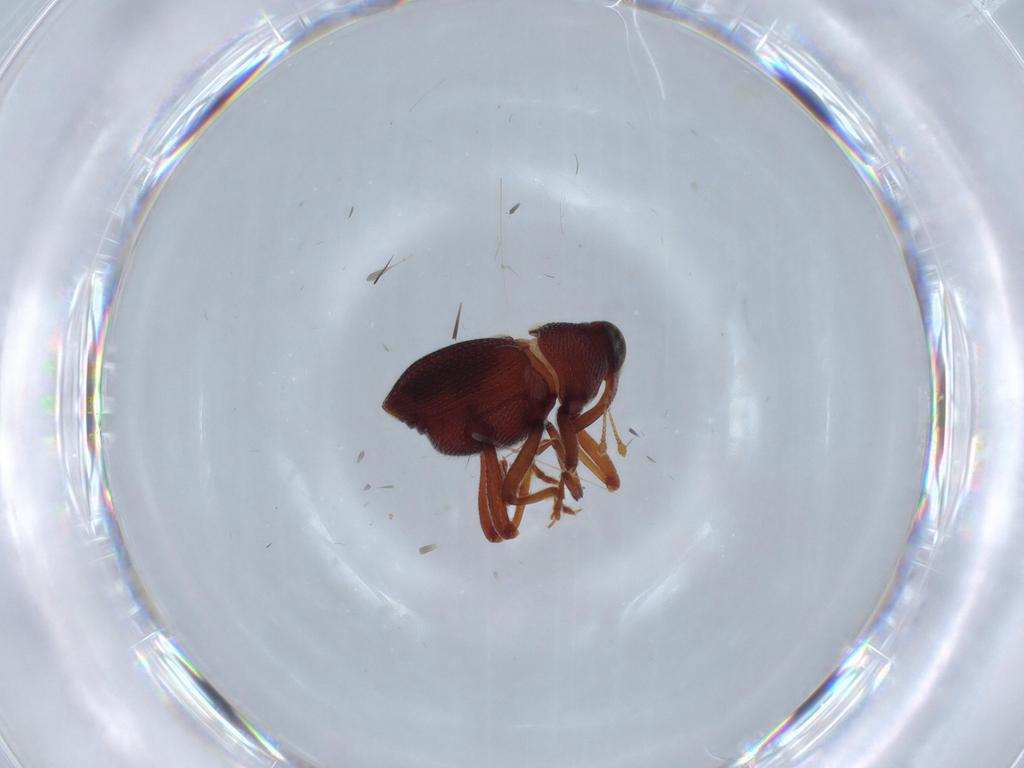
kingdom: Animalia
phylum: Arthropoda
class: Insecta
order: Coleoptera
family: Curculionidae
